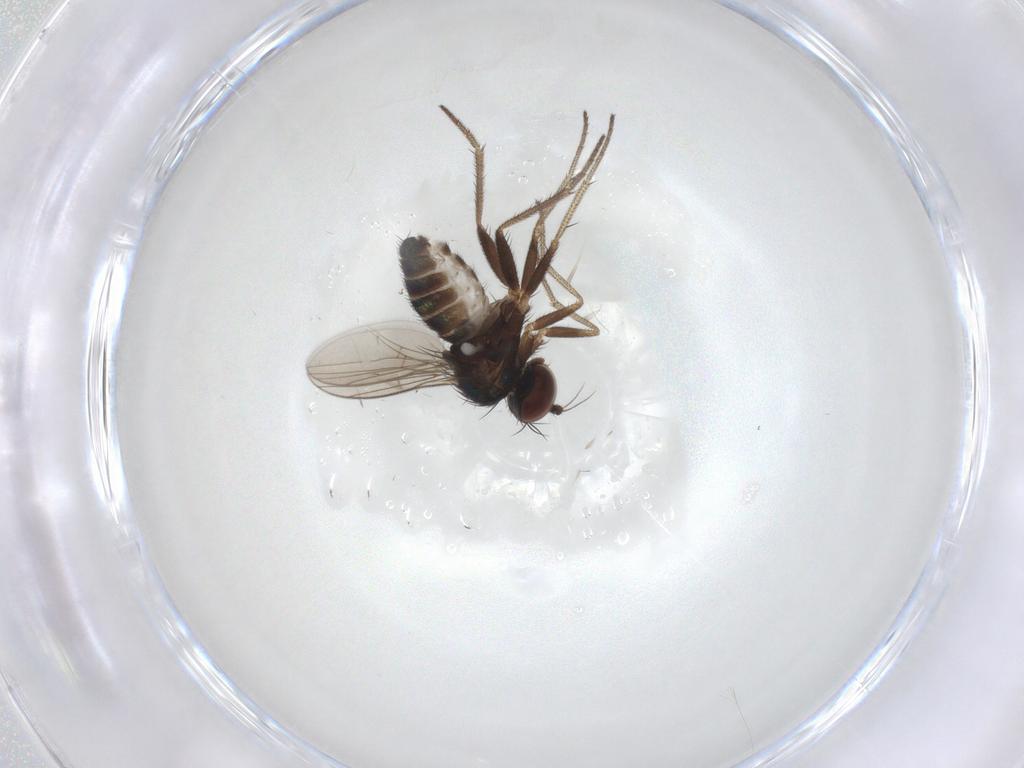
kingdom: Animalia
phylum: Arthropoda
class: Insecta
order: Diptera
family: Dolichopodidae
